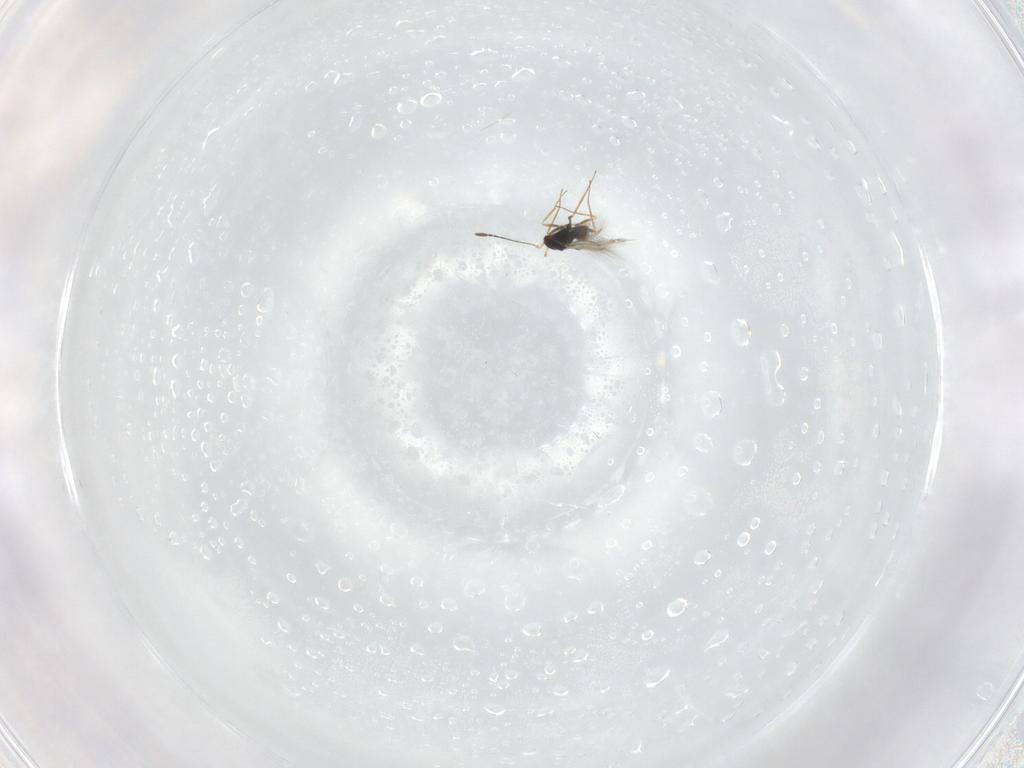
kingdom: Animalia
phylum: Arthropoda
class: Insecta
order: Hymenoptera
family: Mymaridae
